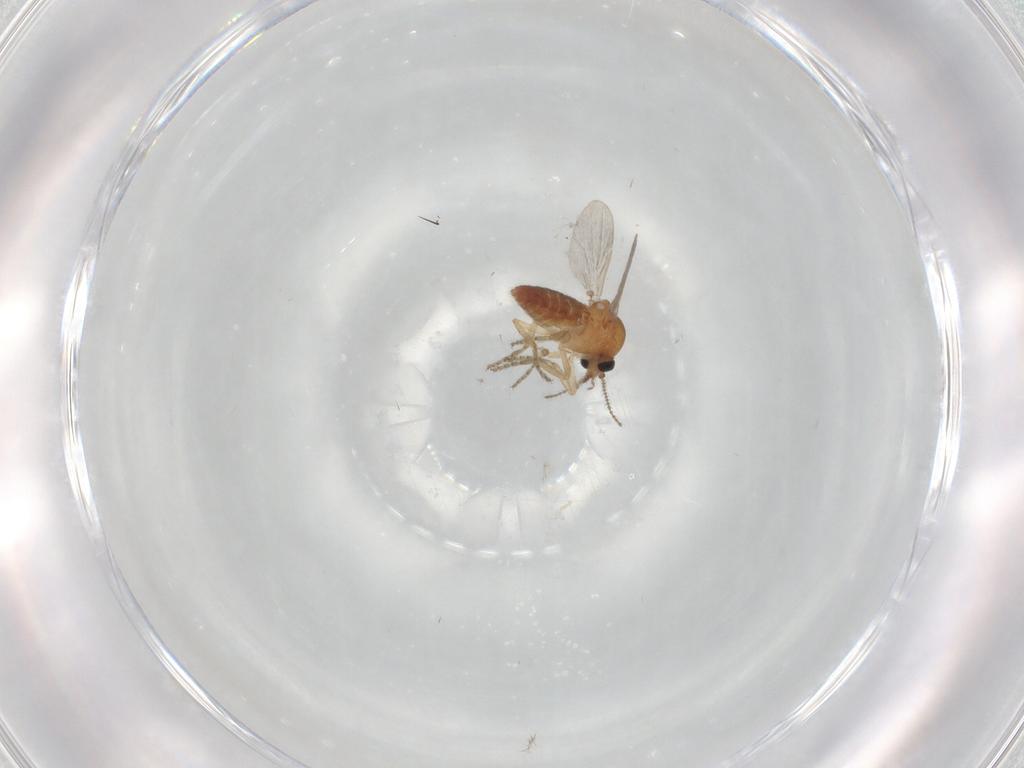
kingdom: Animalia
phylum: Arthropoda
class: Insecta
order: Diptera
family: Ceratopogonidae
